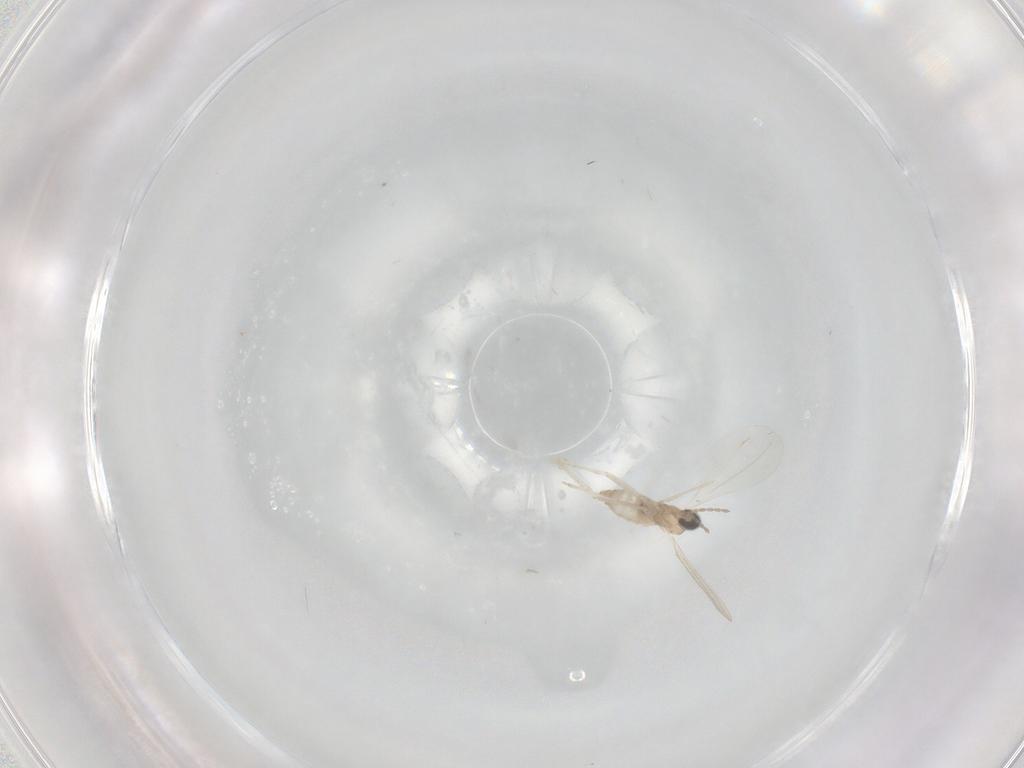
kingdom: Animalia
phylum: Arthropoda
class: Insecta
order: Diptera
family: Cecidomyiidae
